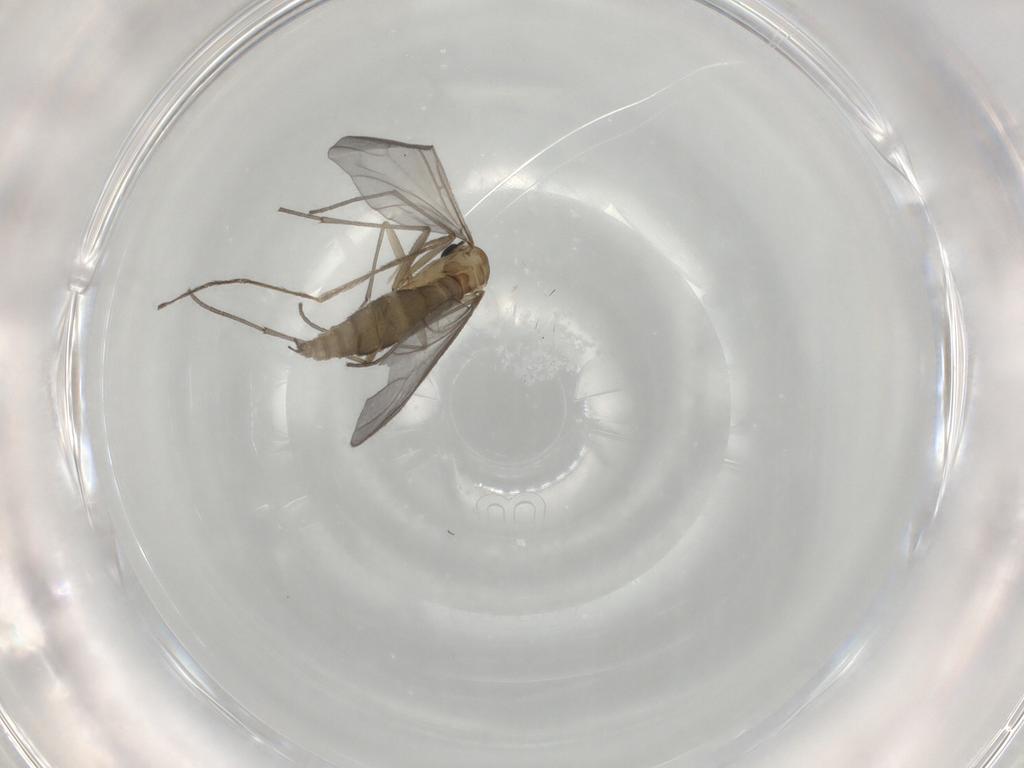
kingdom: Animalia
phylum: Arthropoda
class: Insecta
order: Diptera
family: Sciaridae
